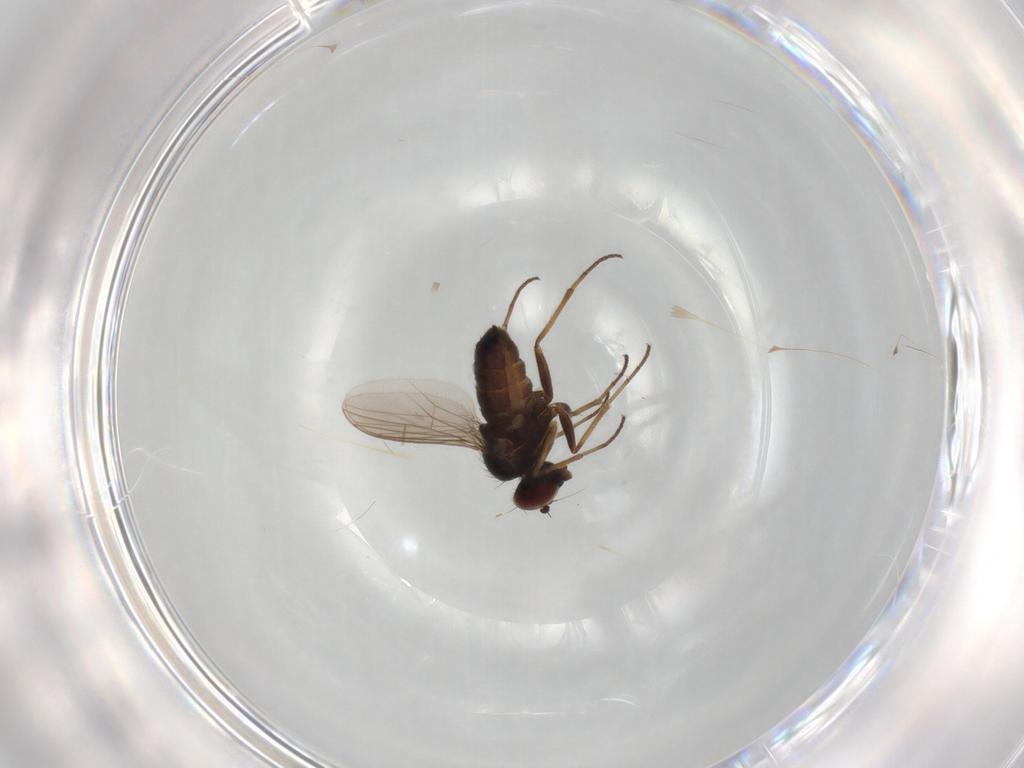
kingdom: Animalia
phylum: Arthropoda
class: Insecta
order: Diptera
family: Dolichopodidae
